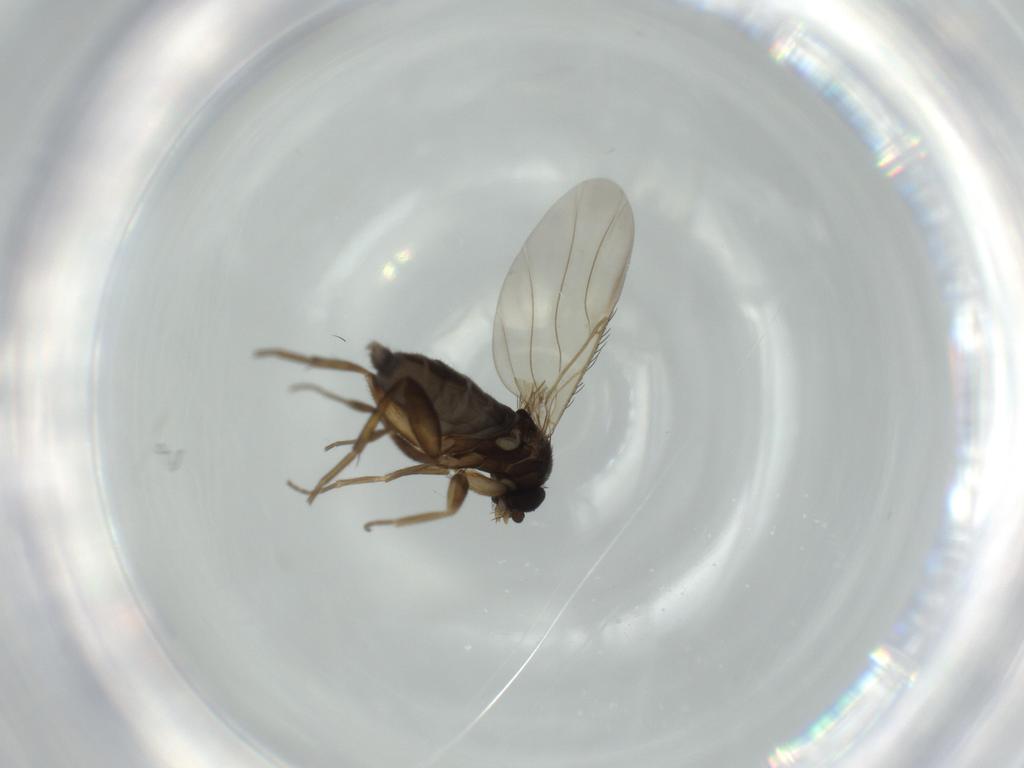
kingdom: Animalia
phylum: Arthropoda
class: Insecta
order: Diptera
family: Phoridae
